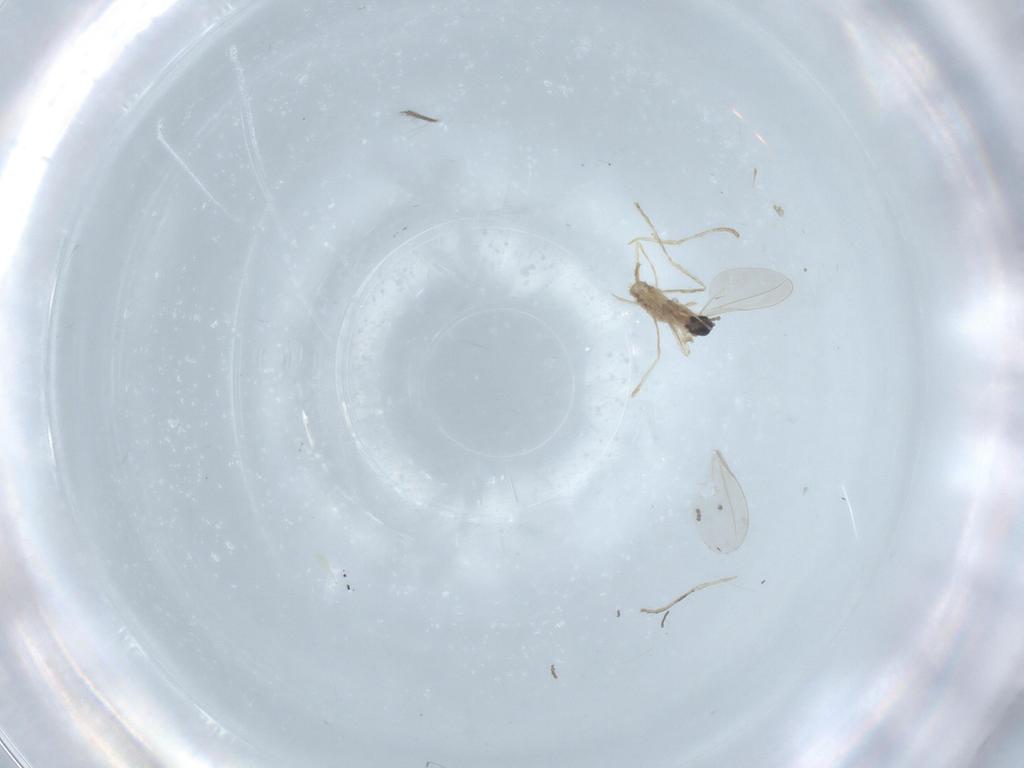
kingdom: Animalia
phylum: Arthropoda
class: Insecta
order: Diptera
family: Cecidomyiidae
